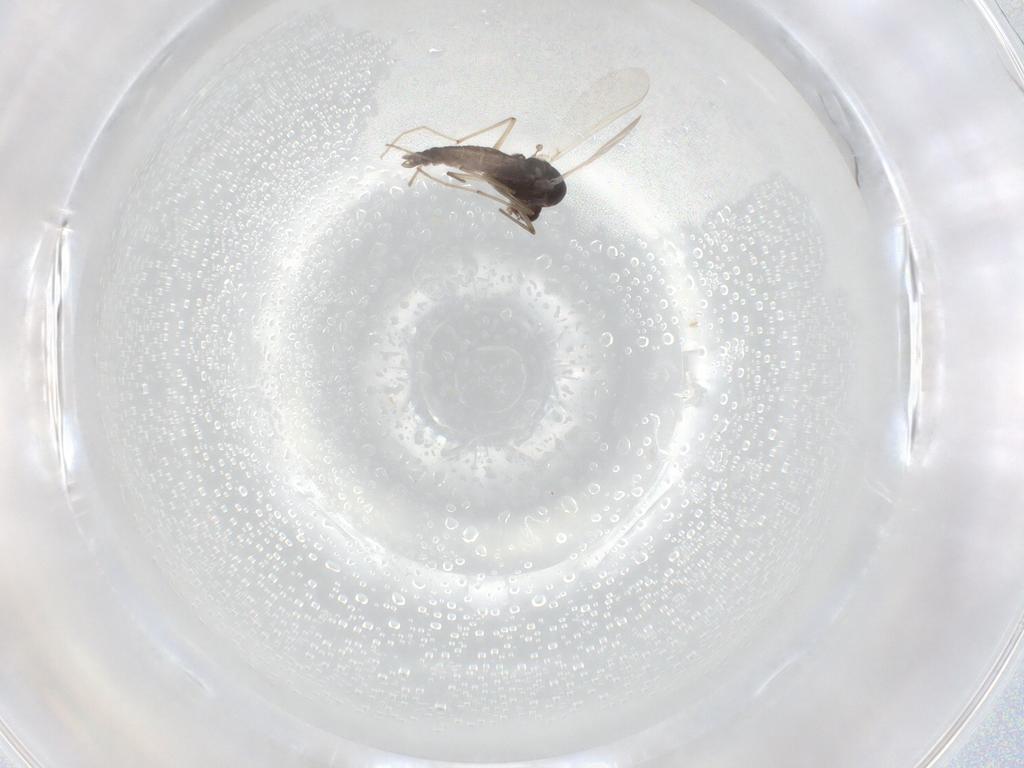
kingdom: Animalia
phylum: Arthropoda
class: Insecta
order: Diptera
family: Chironomidae
